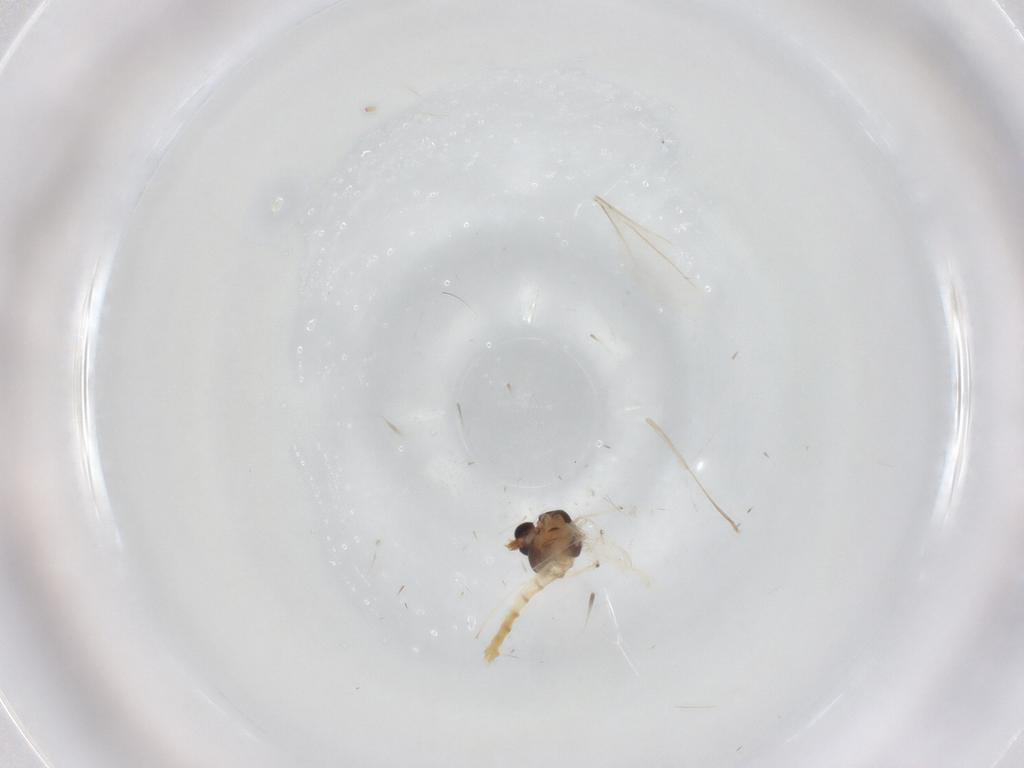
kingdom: Animalia
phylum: Arthropoda
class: Insecta
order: Diptera
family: Chironomidae
